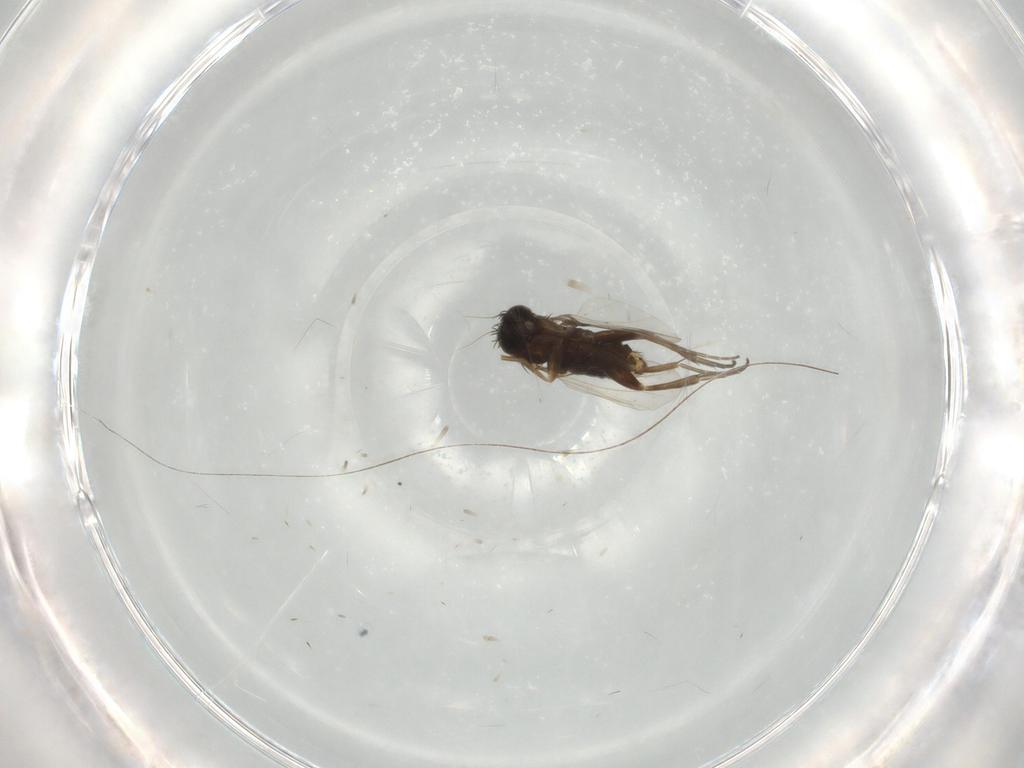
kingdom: Animalia
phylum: Arthropoda
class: Insecta
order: Diptera
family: Phoridae
